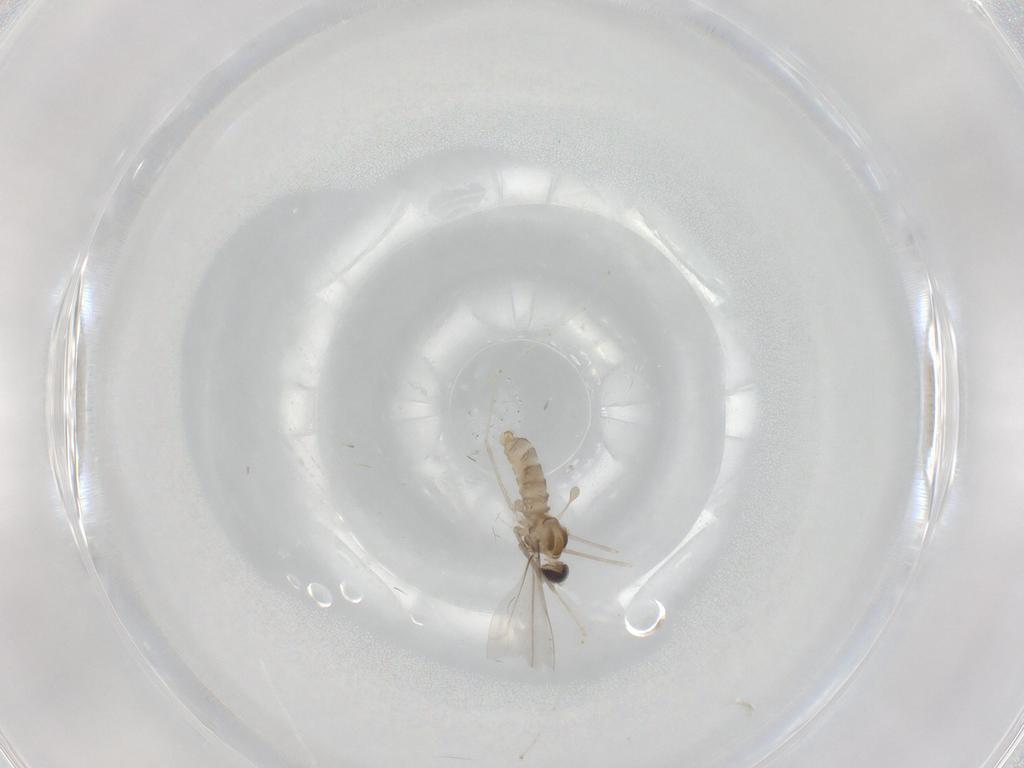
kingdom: Animalia
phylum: Arthropoda
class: Insecta
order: Diptera
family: Cecidomyiidae
